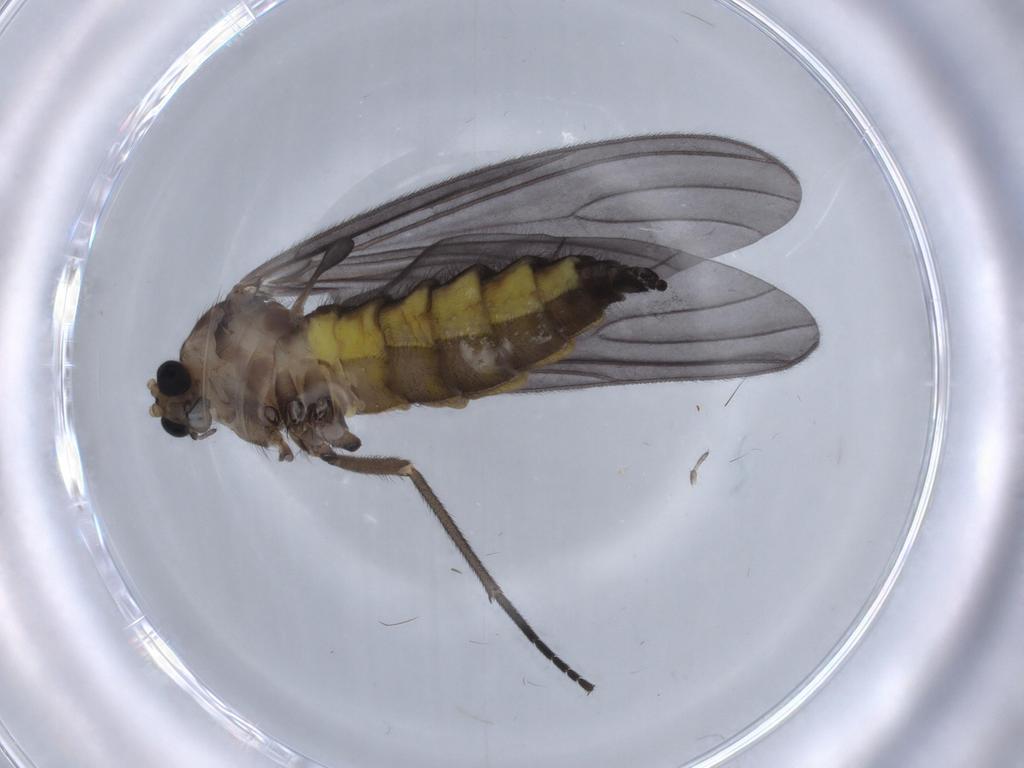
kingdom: Animalia
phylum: Arthropoda
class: Insecta
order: Diptera
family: Sciaridae
